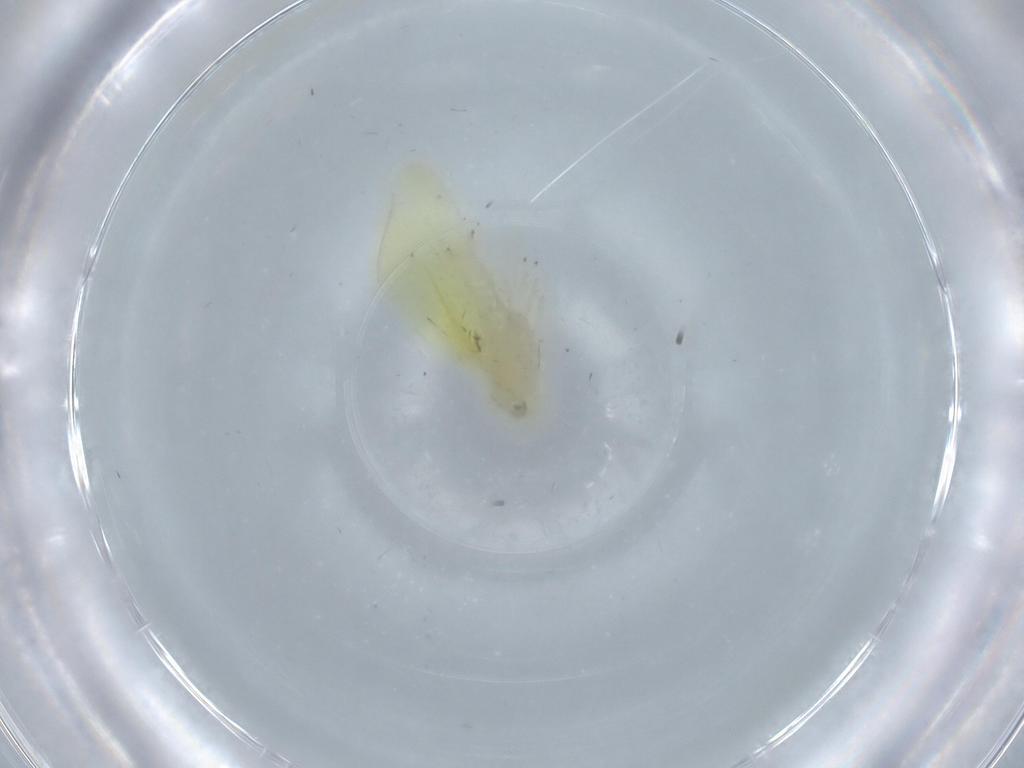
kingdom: Animalia
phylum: Arthropoda
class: Insecta
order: Hemiptera
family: Cicadellidae
